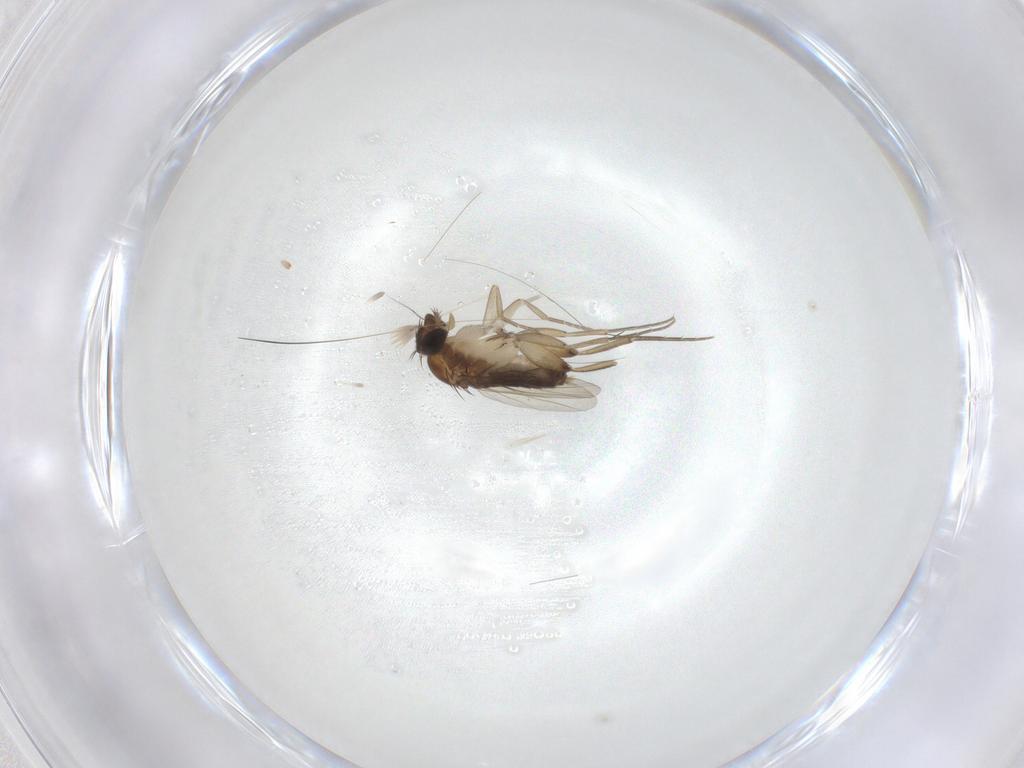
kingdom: Animalia
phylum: Arthropoda
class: Insecta
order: Diptera
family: Phoridae
